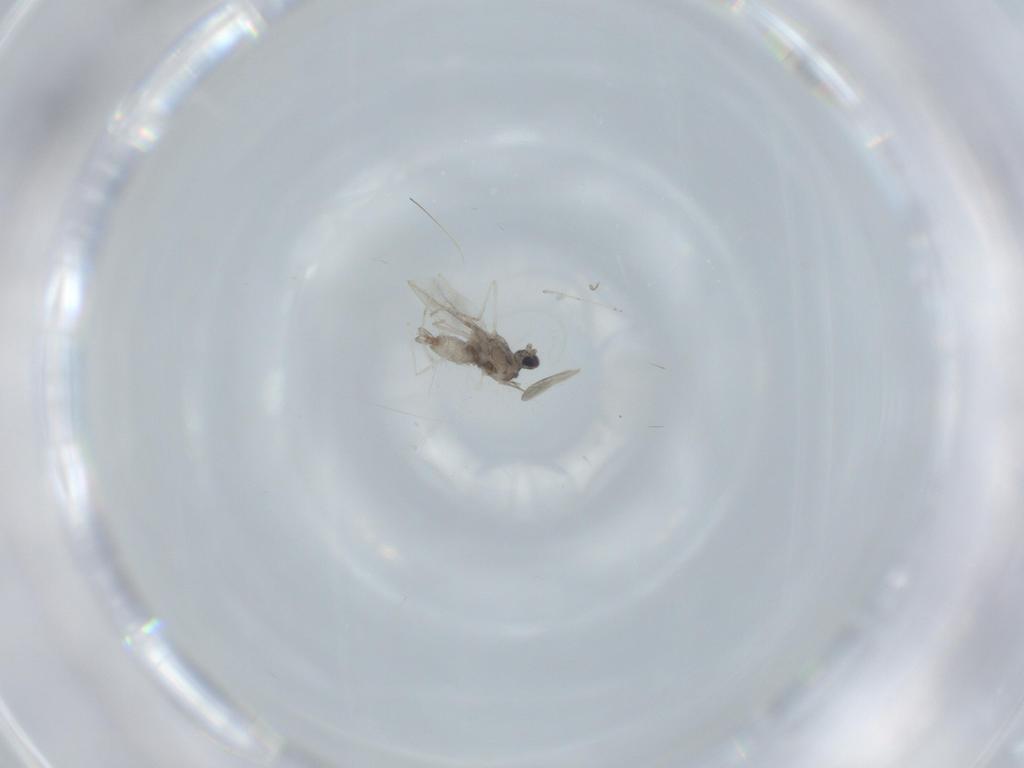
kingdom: Animalia
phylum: Arthropoda
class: Insecta
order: Diptera
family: Cecidomyiidae
